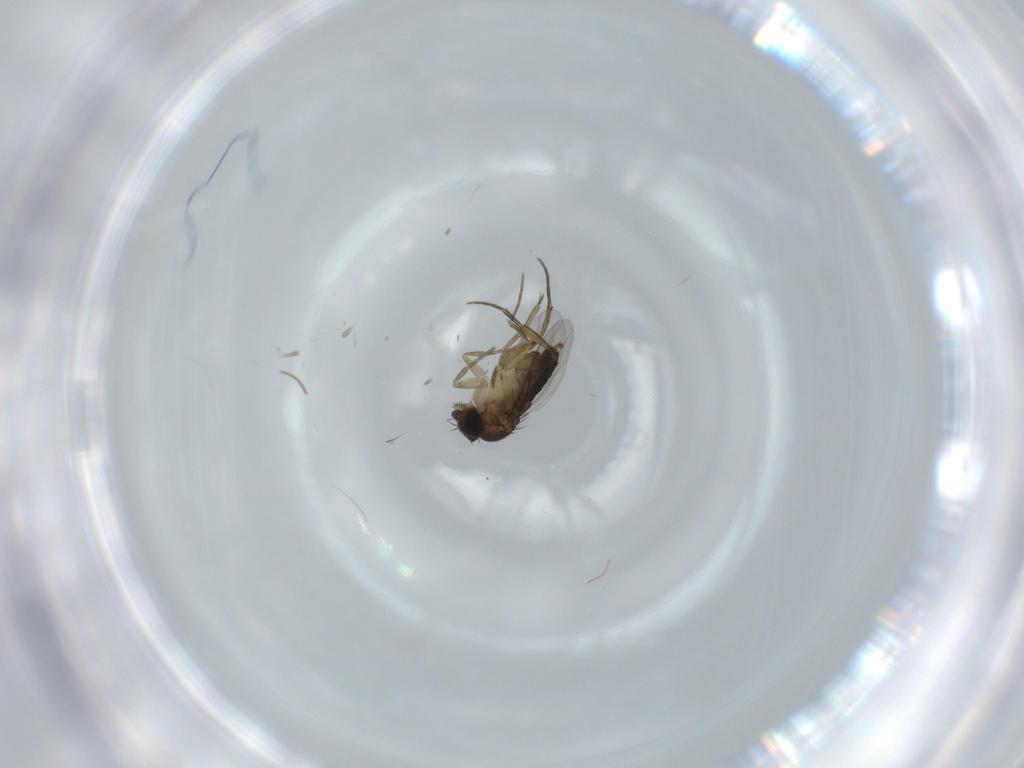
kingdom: Animalia
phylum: Arthropoda
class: Insecta
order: Diptera
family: Phoridae
